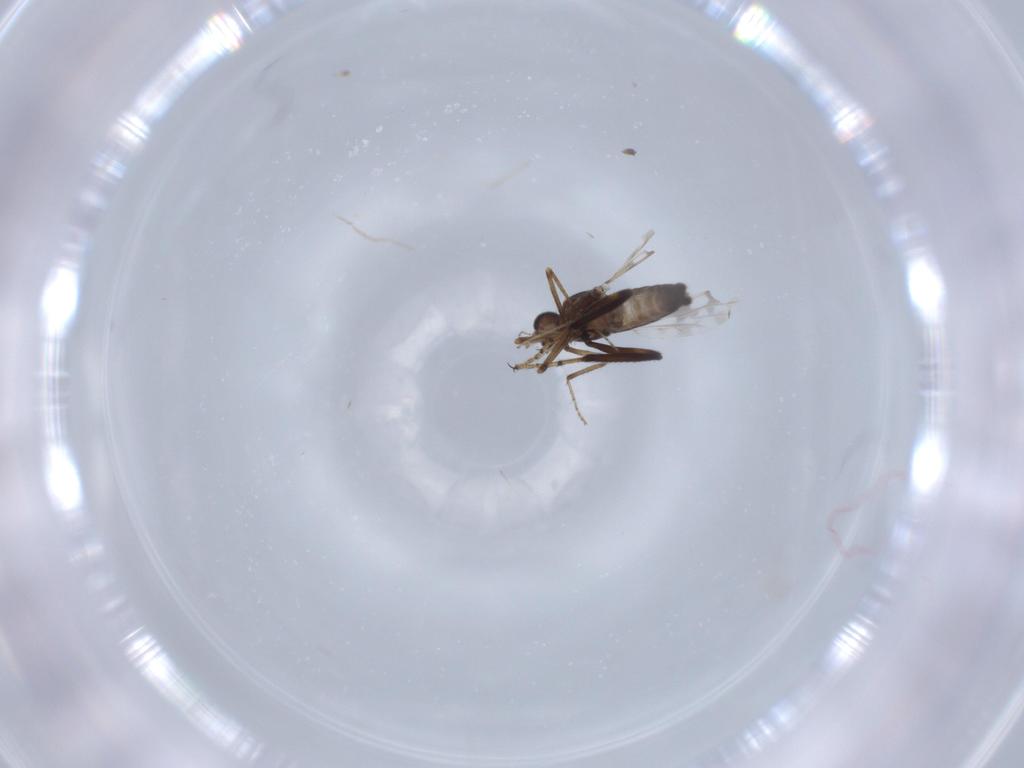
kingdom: Animalia
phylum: Arthropoda
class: Insecta
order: Diptera
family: Ceratopogonidae
